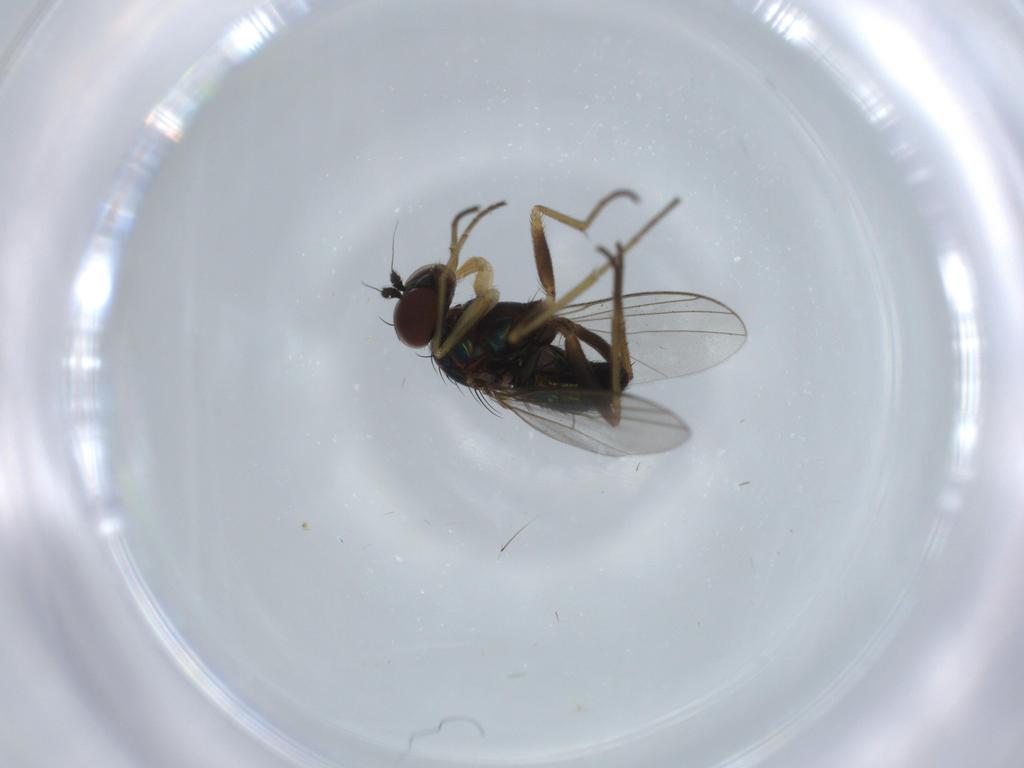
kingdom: Animalia
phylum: Arthropoda
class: Insecta
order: Diptera
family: Dolichopodidae
